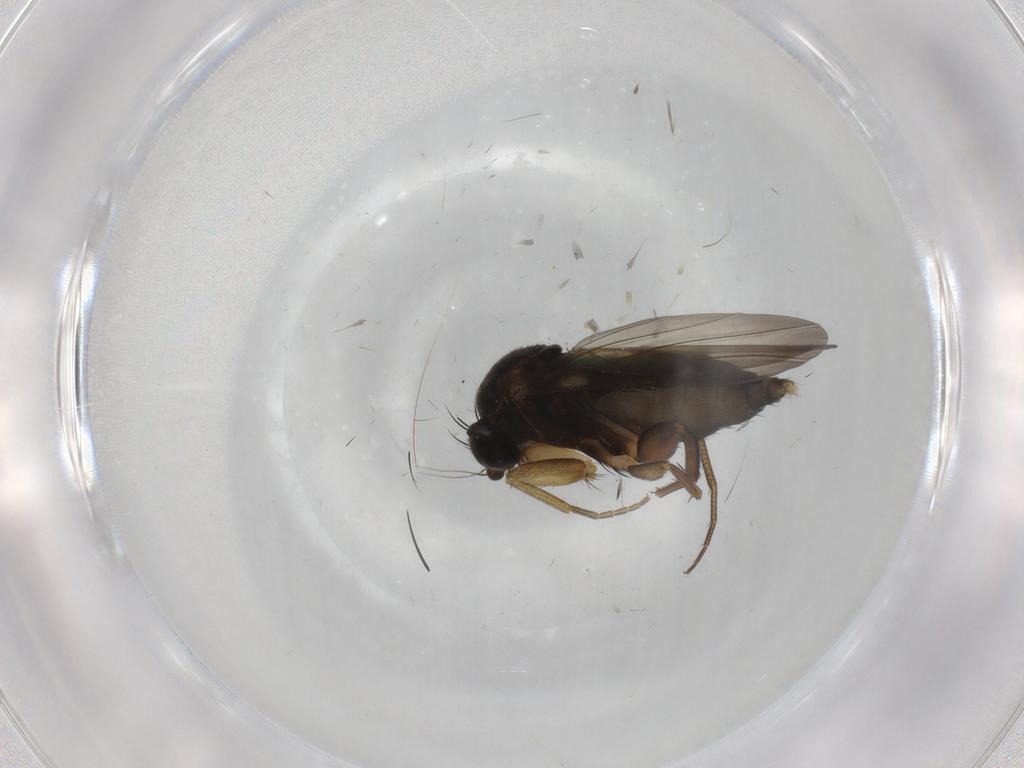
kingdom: Animalia
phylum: Arthropoda
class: Insecta
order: Diptera
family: Phoridae
